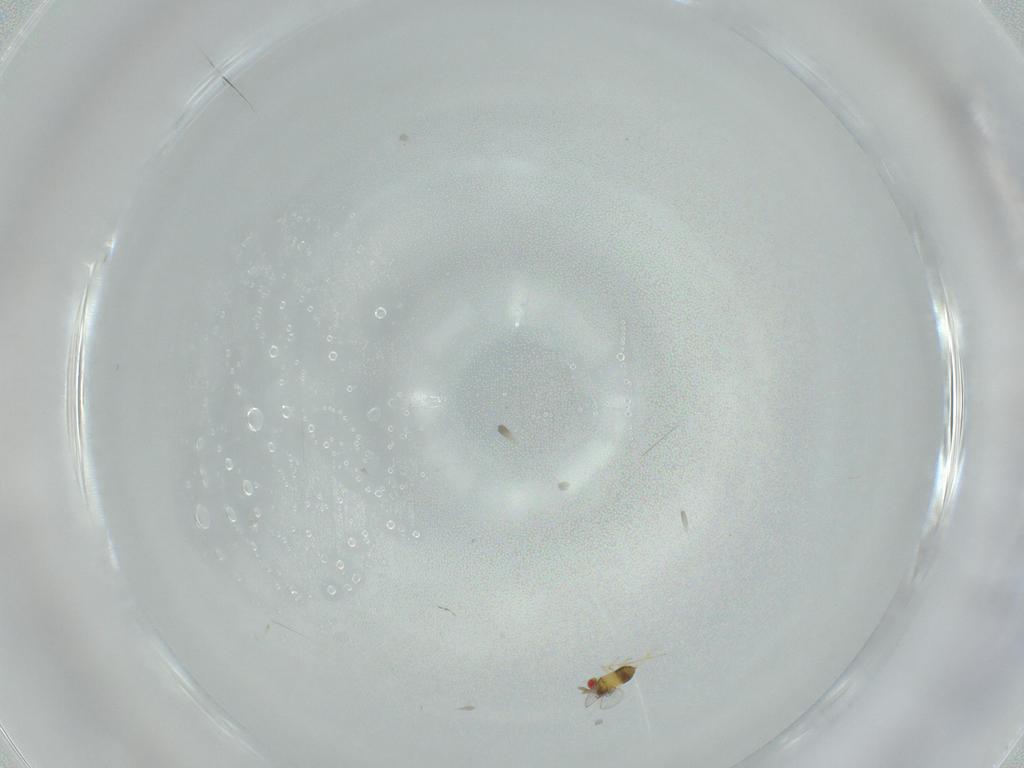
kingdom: Animalia
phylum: Arthropoda
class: Insecta
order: Hymenoptera
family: Trichogrammatidae
